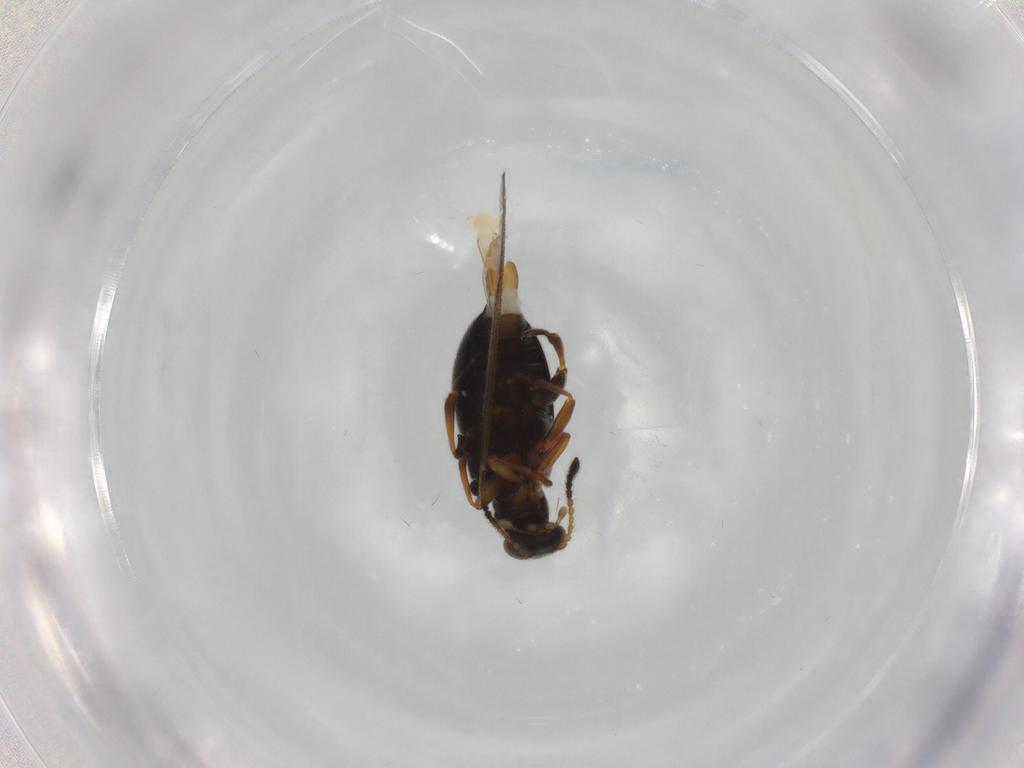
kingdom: Animalia
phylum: Arthropoda
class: Insecta
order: Coleoptera
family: Aderidae
